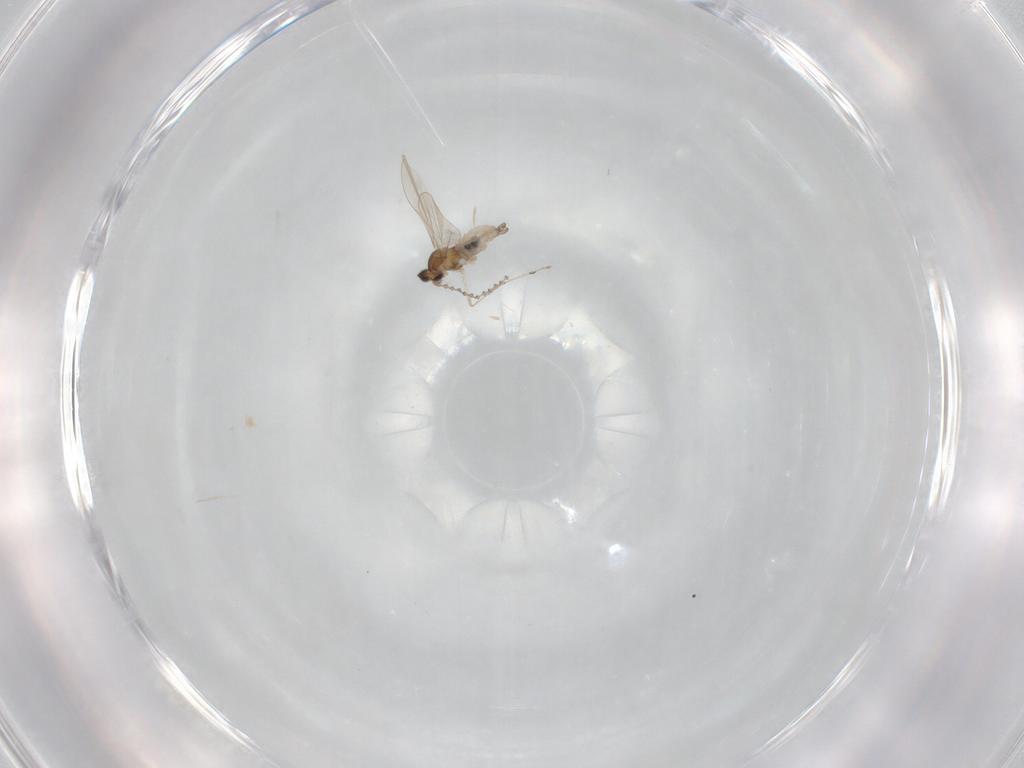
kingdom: Animalia
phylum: Arthropoda
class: Insecta
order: Diptera
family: Cecidomyiidae
